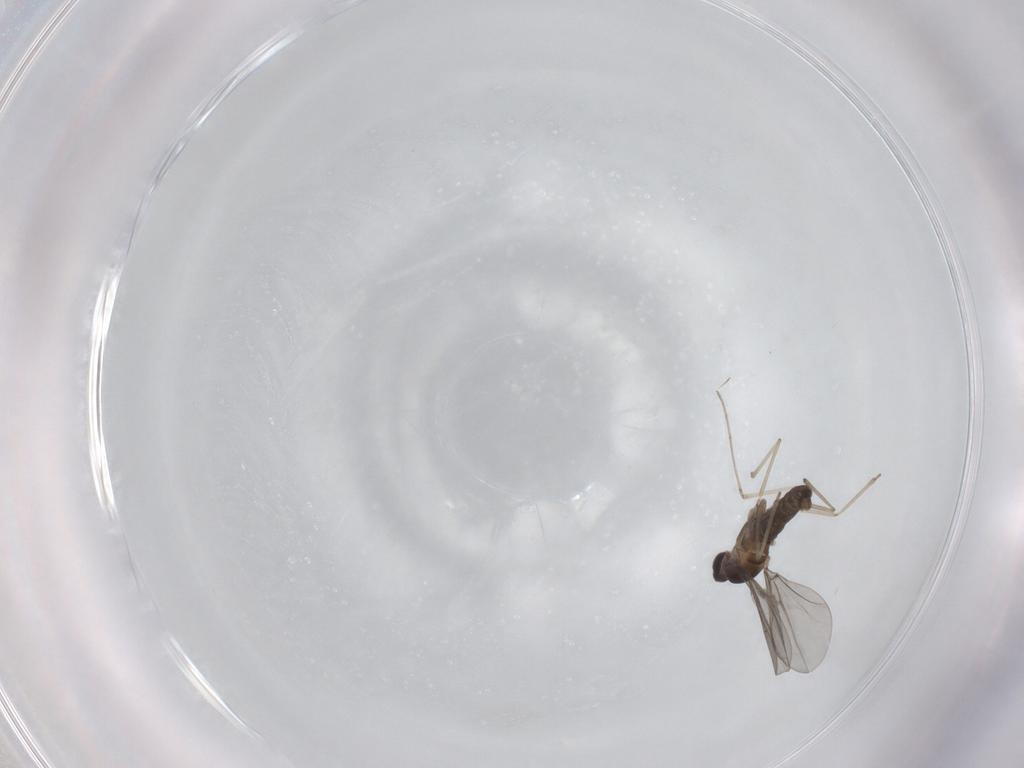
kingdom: Animalia
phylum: Arthropoda
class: Insecta
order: Diptera
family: Cecidomyiidae
